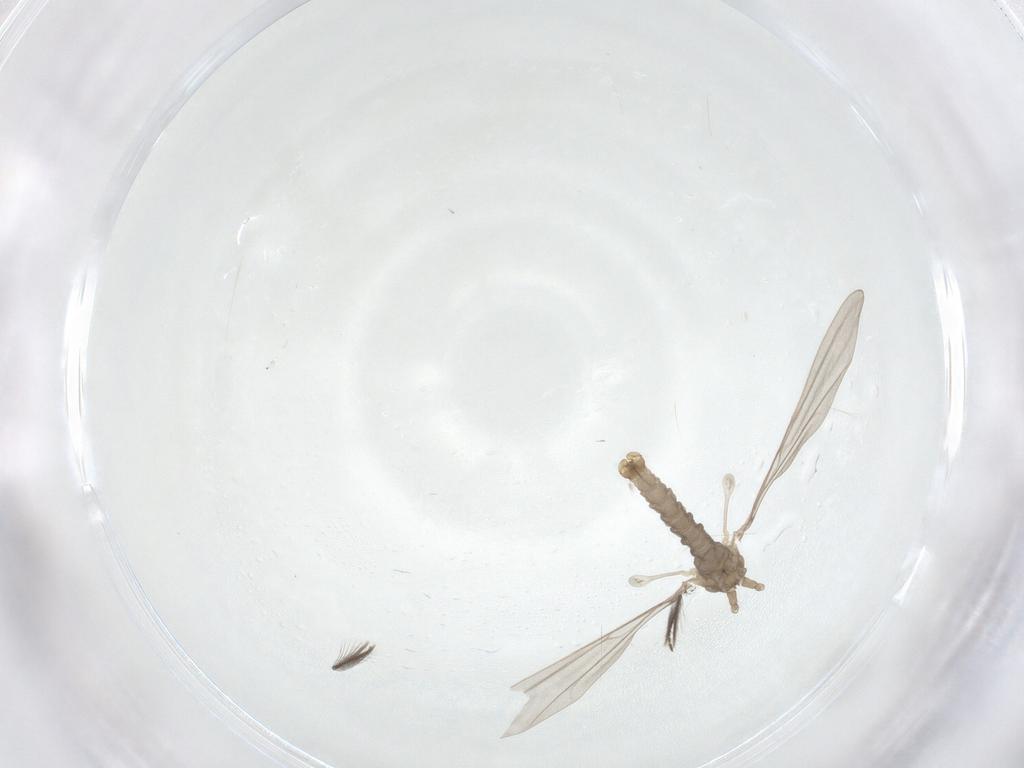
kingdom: Animalia
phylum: Arthropoda
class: Insecta
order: Diptera
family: Cecidomyiidae
